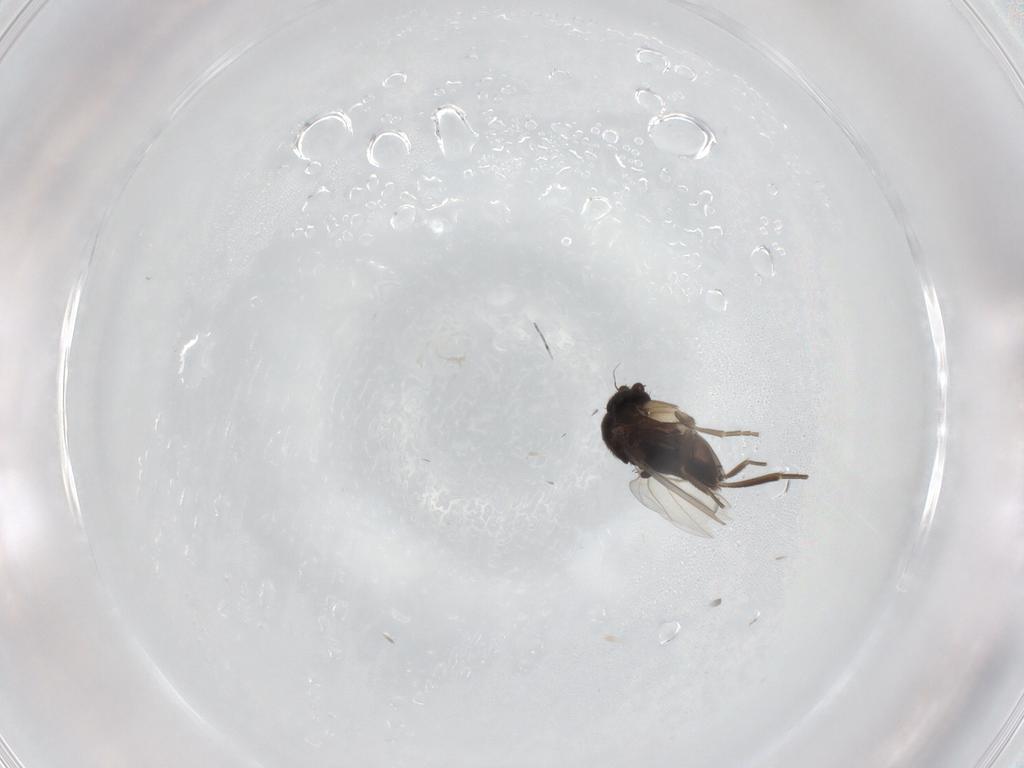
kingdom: Animalia
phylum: Arthropoda
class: Insecta
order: Diptera
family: Phoridae
